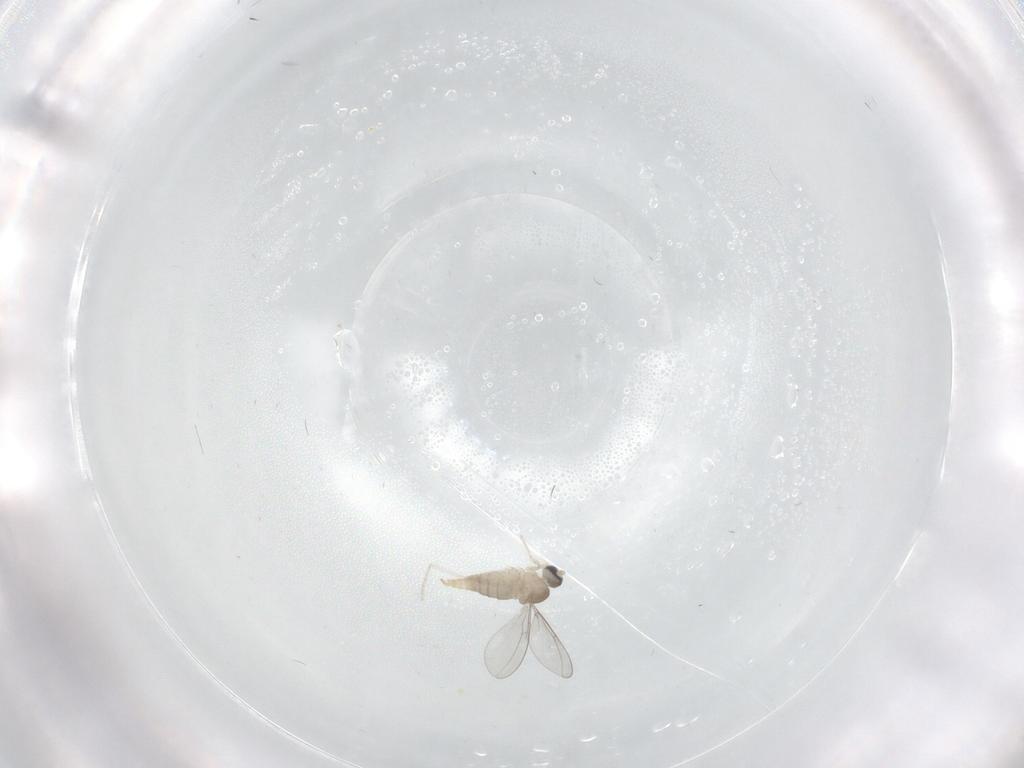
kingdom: Animalia
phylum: Arthropoda
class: Insecta
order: Diptera
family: Cecidomyiidae
